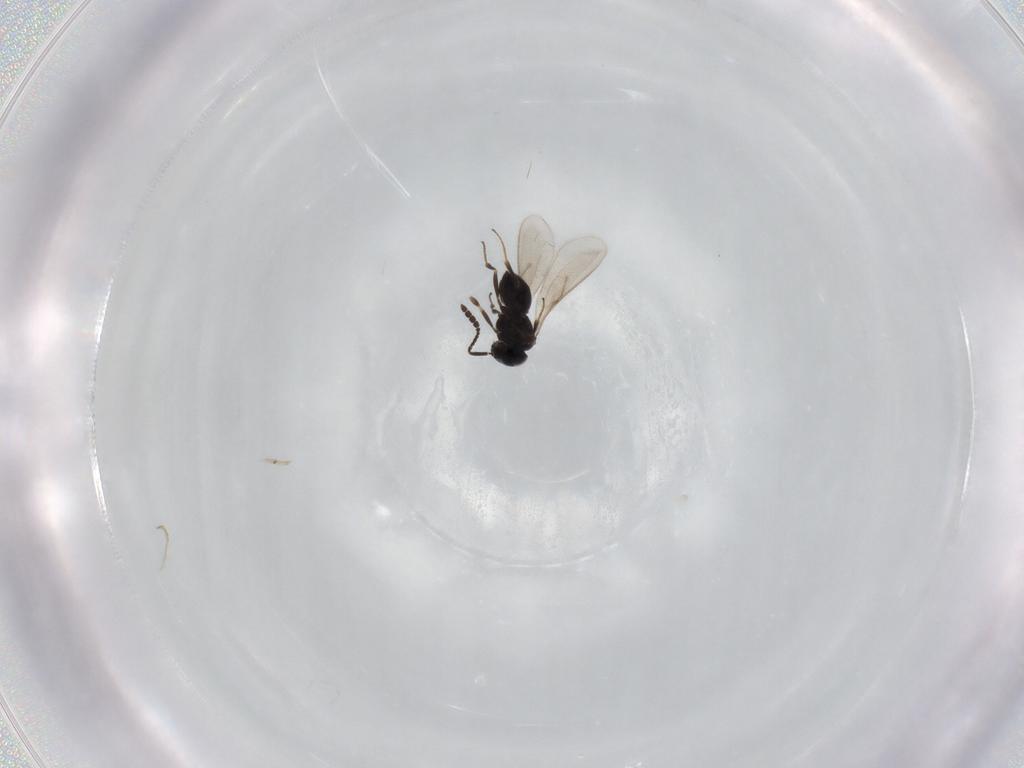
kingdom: Animalia
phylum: Arthropoda
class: Insecta
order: Hymenoptera
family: Scelionidae
